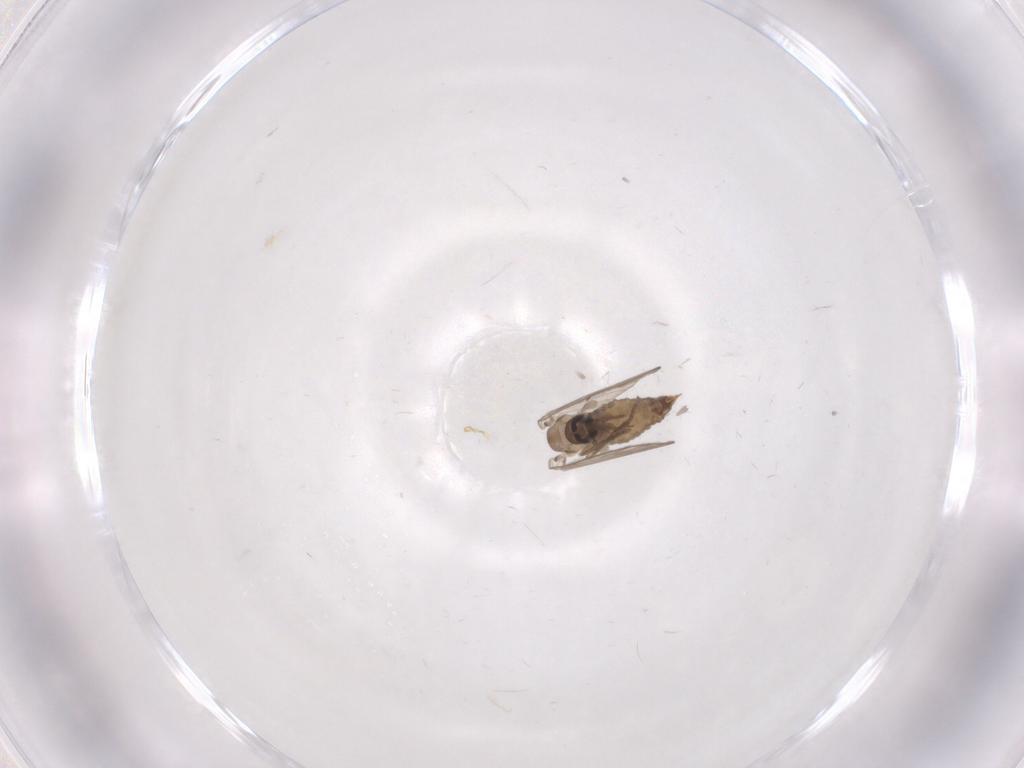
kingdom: Animalia
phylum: Arthropoda
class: Insecta
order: Diptera
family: Psychodidae
